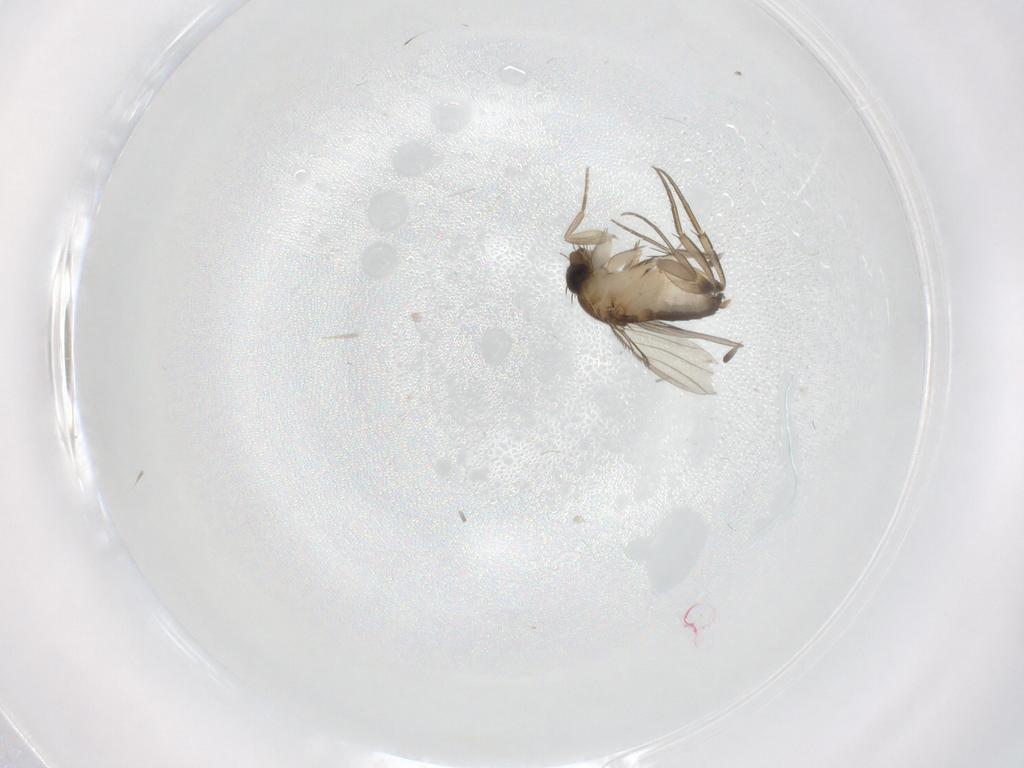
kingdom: Animalia
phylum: Arthropoda
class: Insecta
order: Diptera
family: Phoridae
